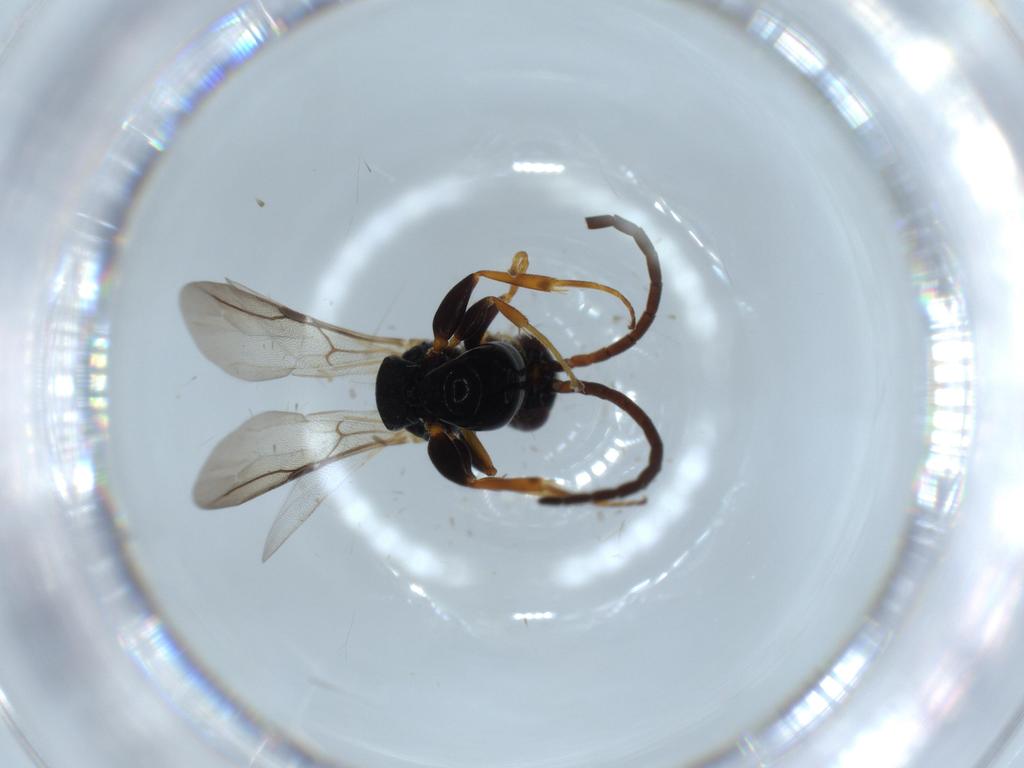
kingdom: Animalia
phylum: Arthropoda
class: Insecta
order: Hymenoptera
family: Bethylidae
